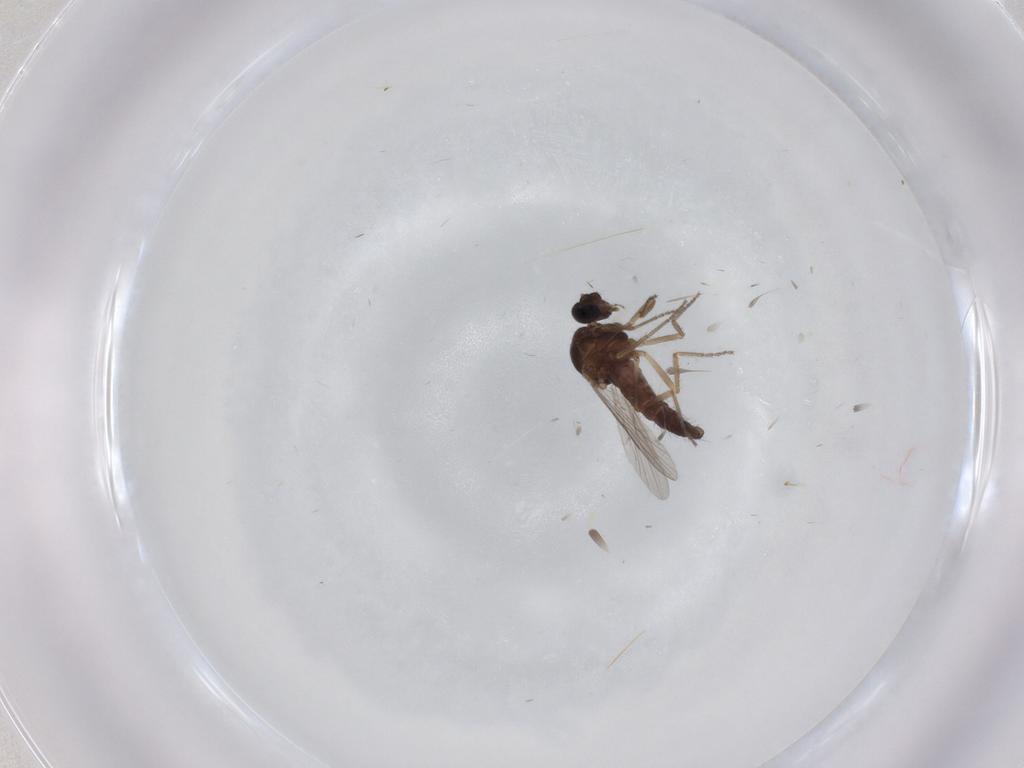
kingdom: Animalia
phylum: Arthropoda
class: Insecta
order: Diptera
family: Ceratopogonidae
